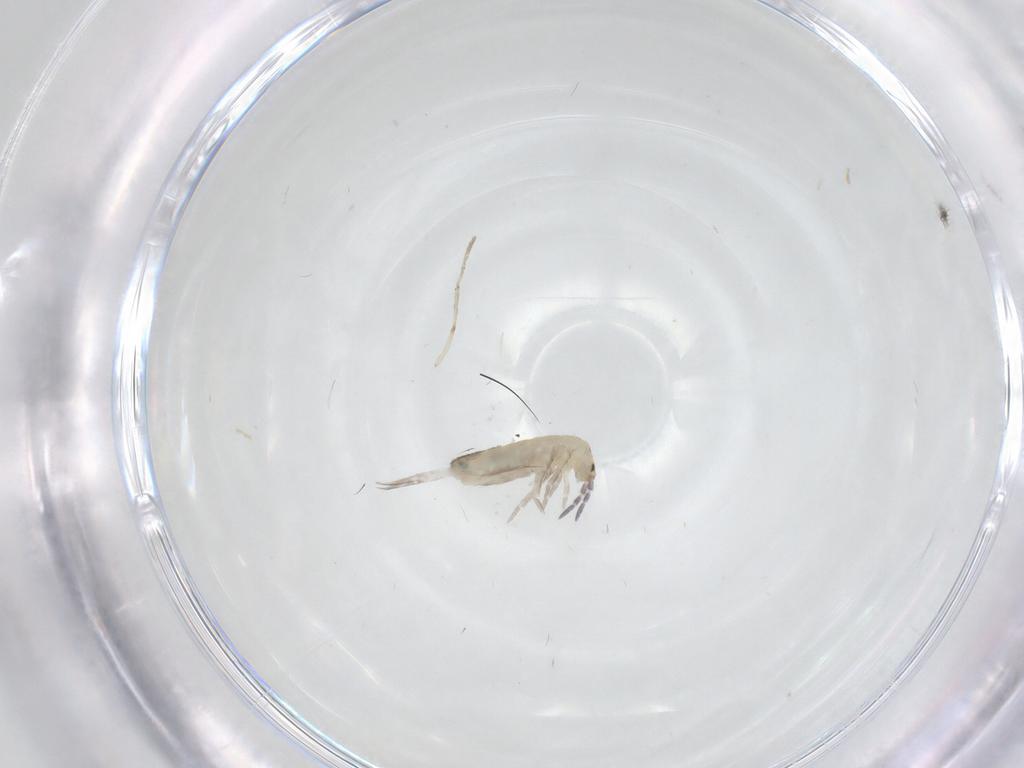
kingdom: Animalia
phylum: Arthropoda
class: Collembola
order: Entomobryomorpha
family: Entomobryidae
